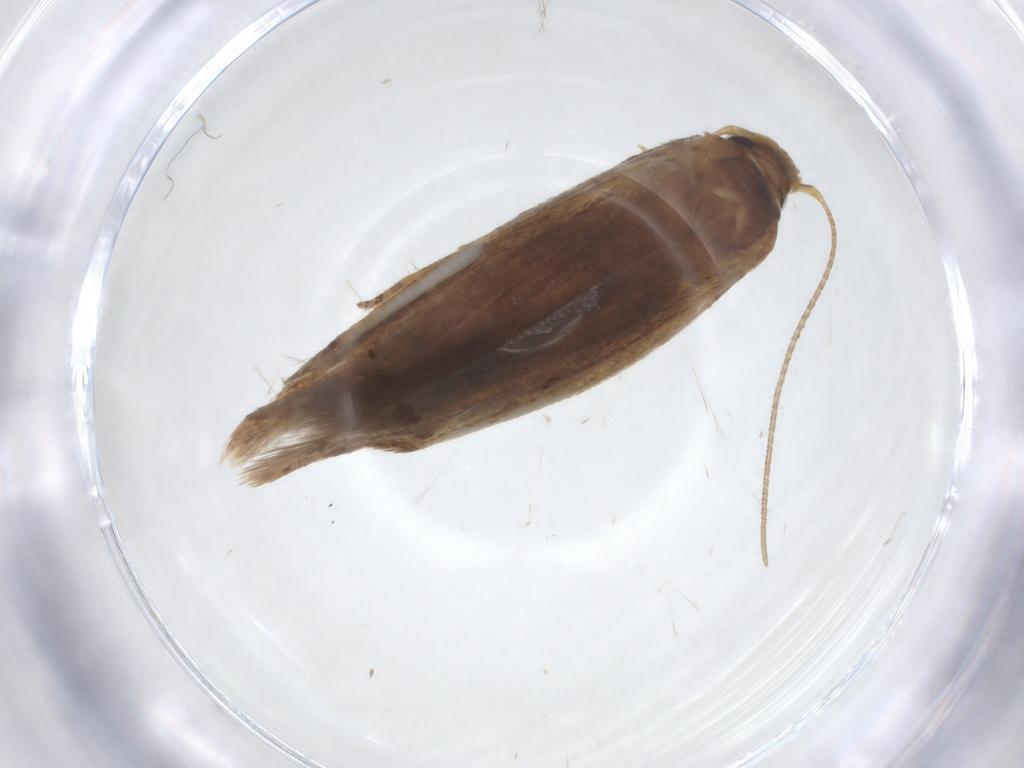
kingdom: Animalia
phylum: Arthropoda
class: Insecta
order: Lepidoptera
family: Blastobasidae
